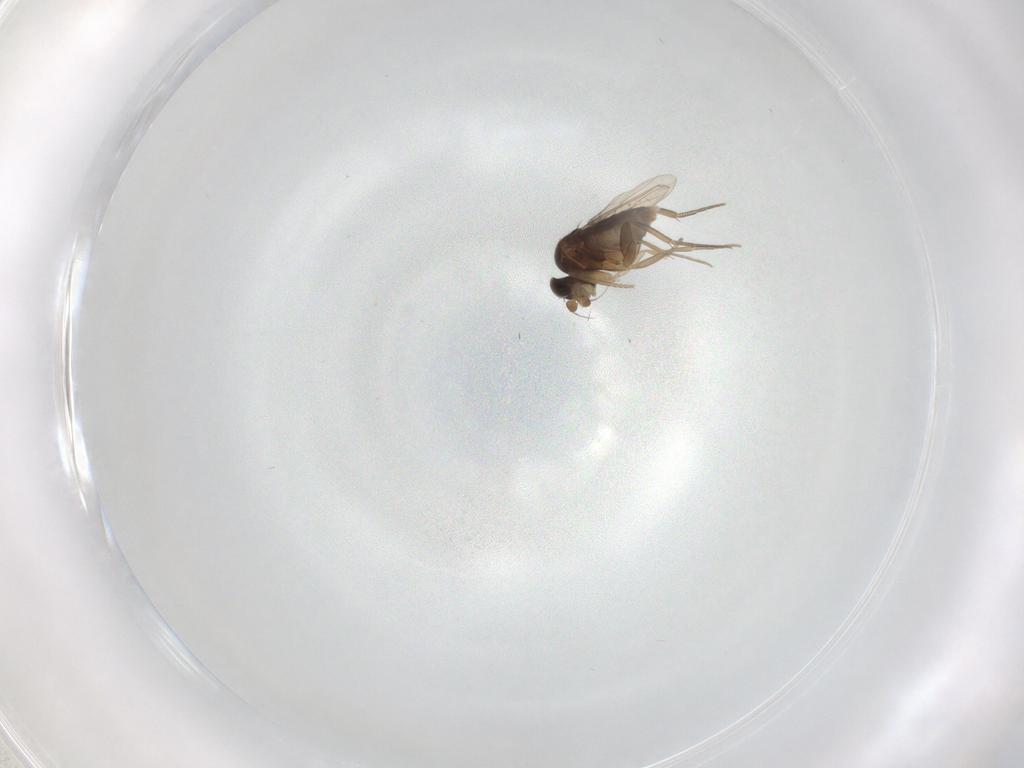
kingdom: Animalia
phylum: Arthropoda
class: Insecta
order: Diptera
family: Phoridae
